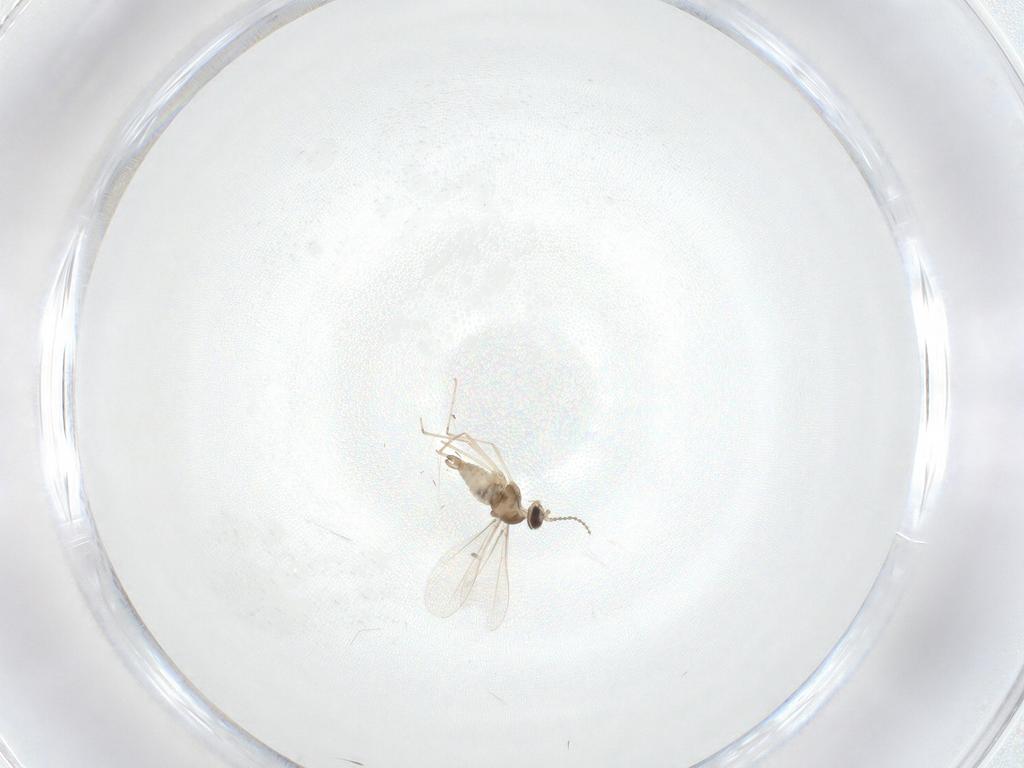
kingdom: Animalia
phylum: Arthropoda
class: Insecta
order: Diptera
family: Cecidomyiidae
